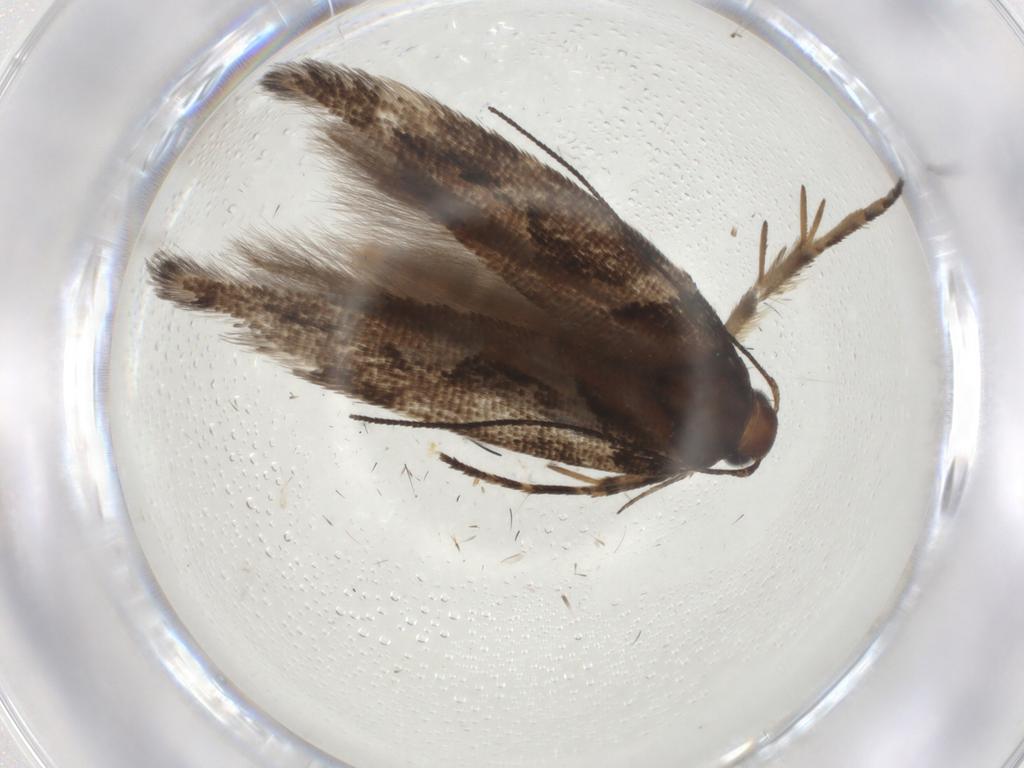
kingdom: Animalia
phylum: Arthropoda
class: Insecta
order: Lepidoptera
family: Gelechiidae
